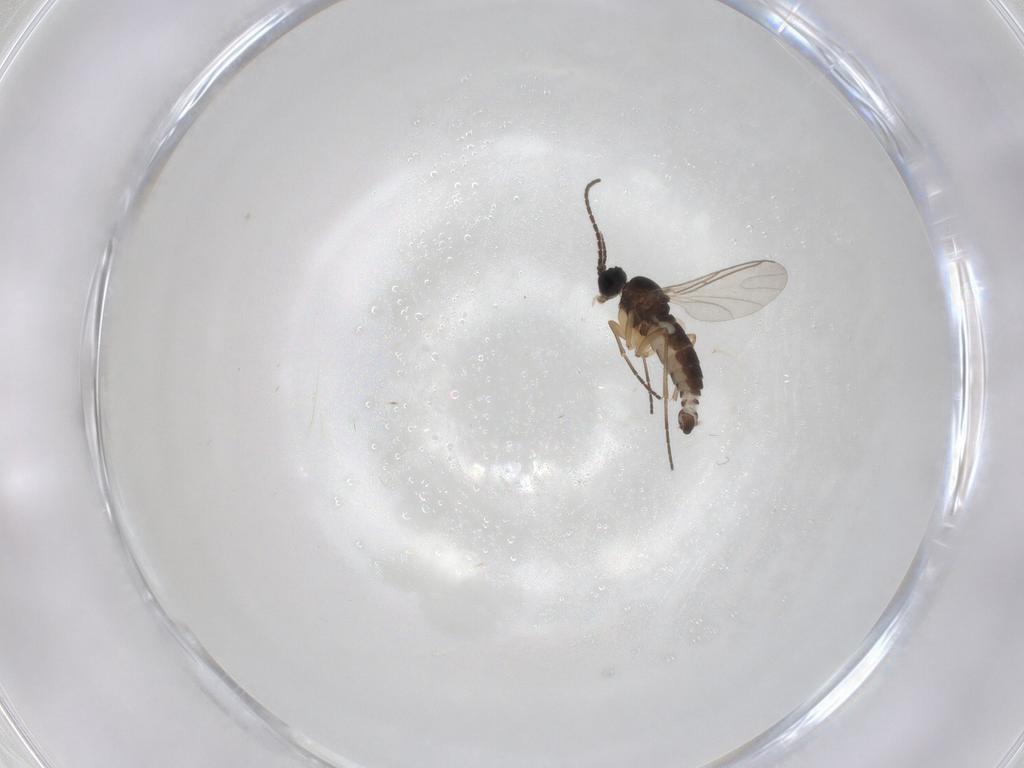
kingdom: Animalia
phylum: Arthropoda
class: Insecta
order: Diptera
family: Sciaridae
